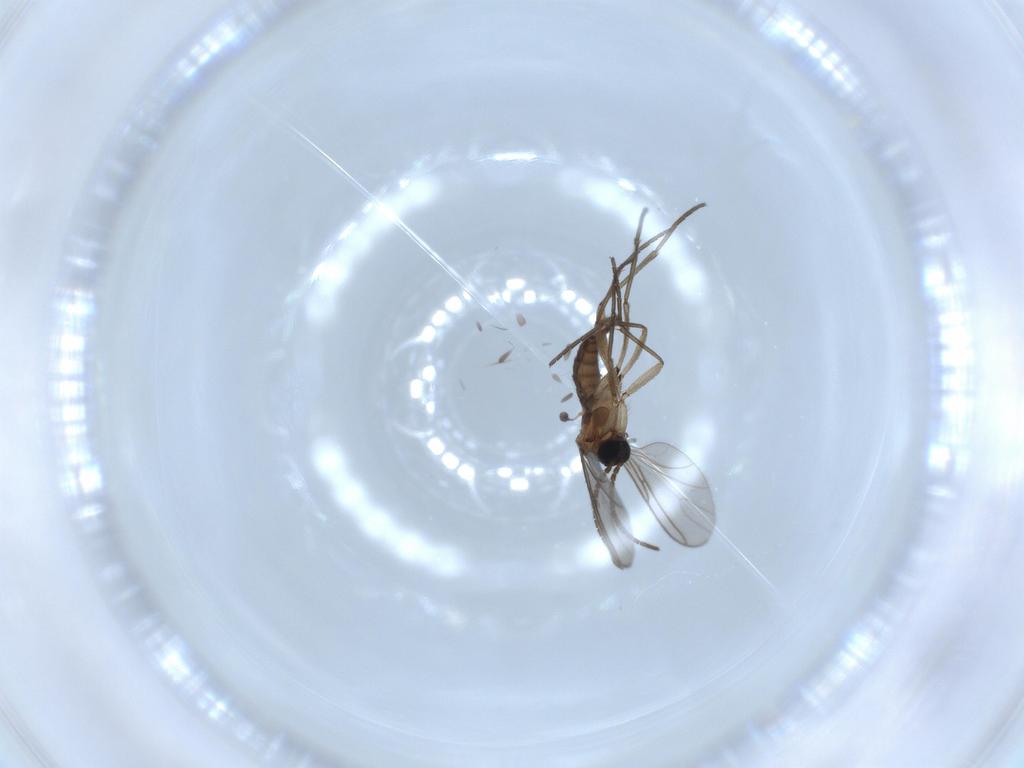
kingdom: Animalia
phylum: Arthropoda
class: Insecta
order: Diptera
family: Sciaridae
